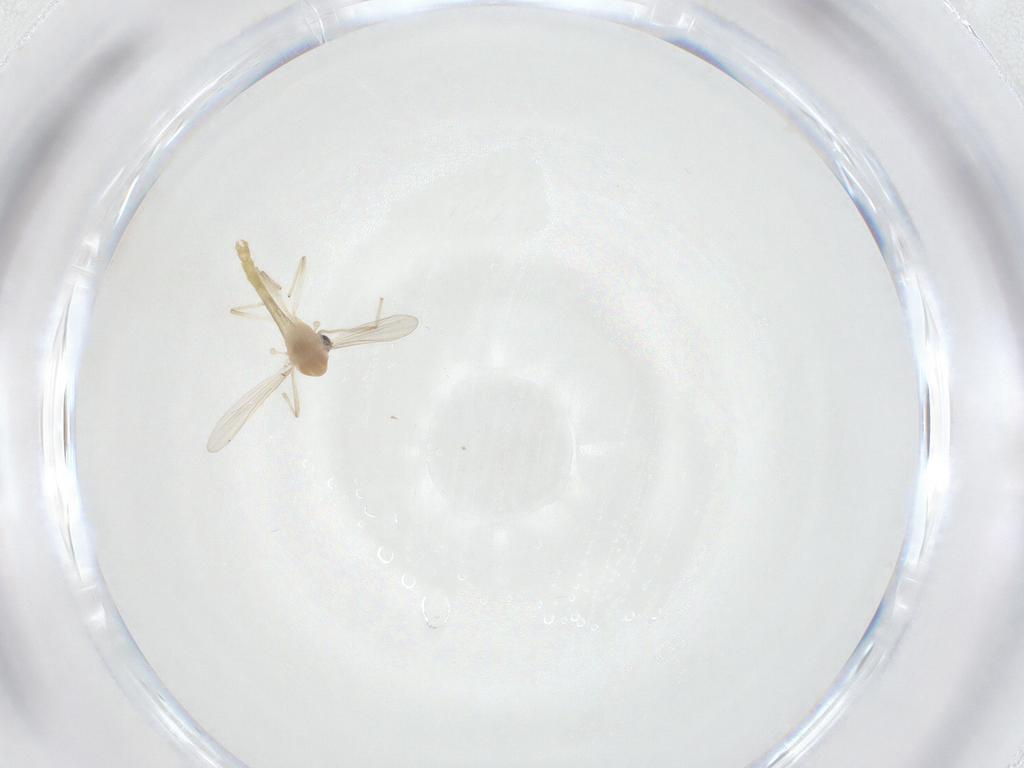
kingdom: Animalia
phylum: Arthropoda
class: Insecta
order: Diptera
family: Chironomidae
